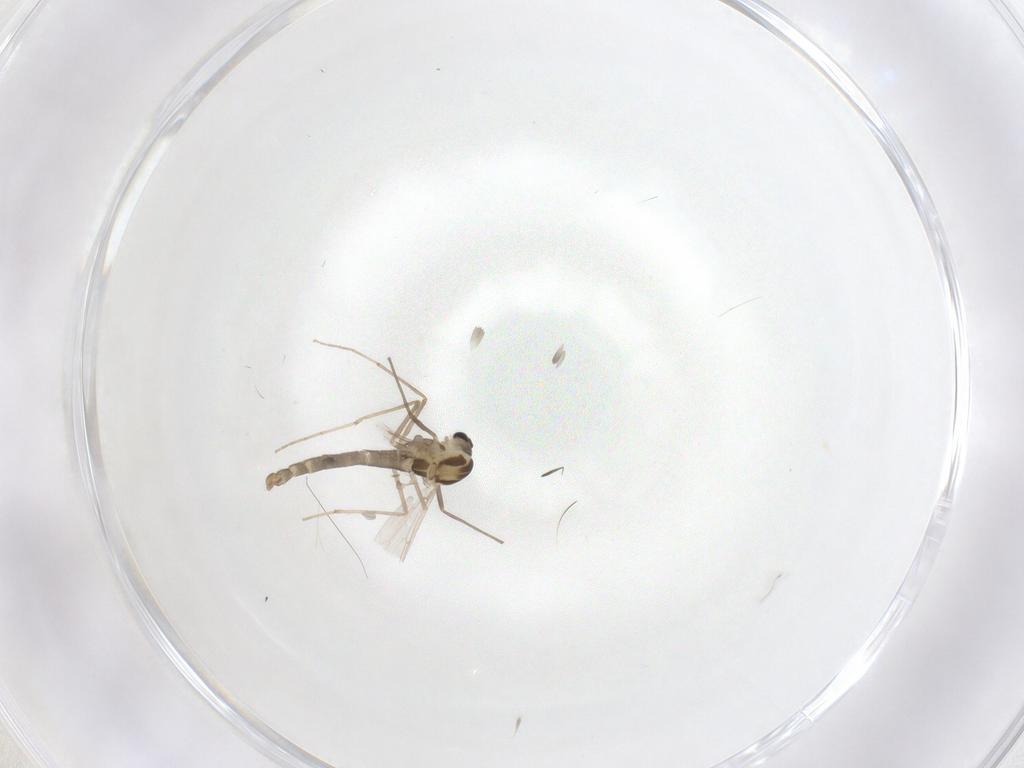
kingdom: Animalia
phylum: Arthropoda
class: Insecta
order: Diptera
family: Chironomidae
